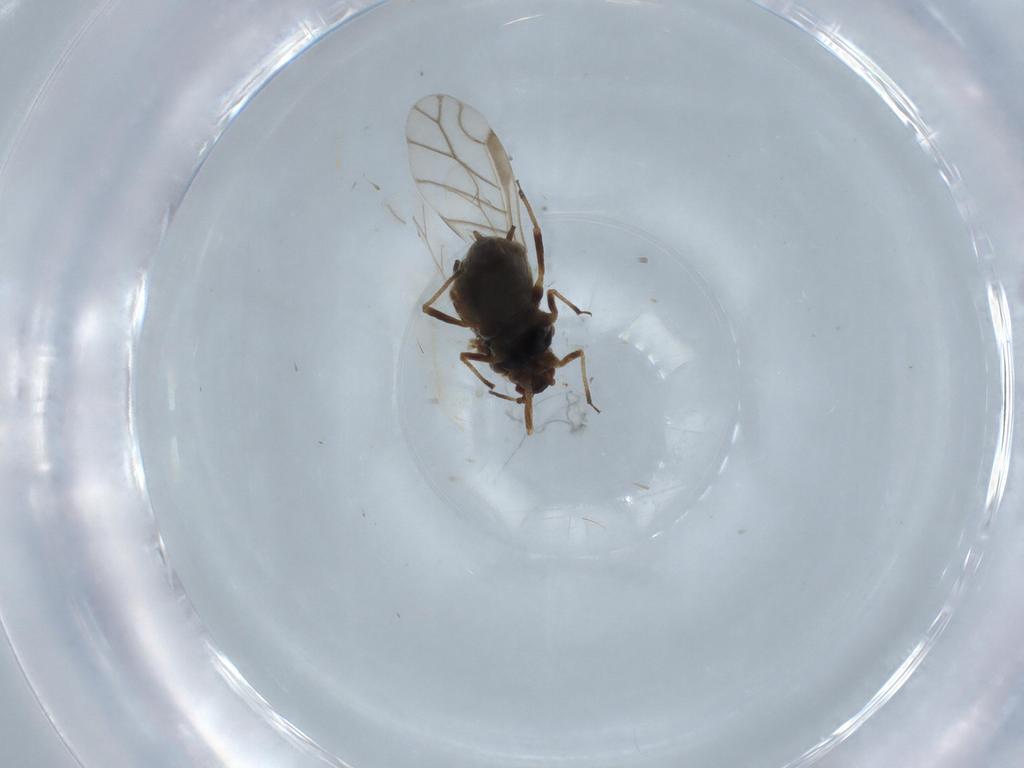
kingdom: Animalia
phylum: Arthropoda
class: Insecta
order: Hemiptera
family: Aphididae
